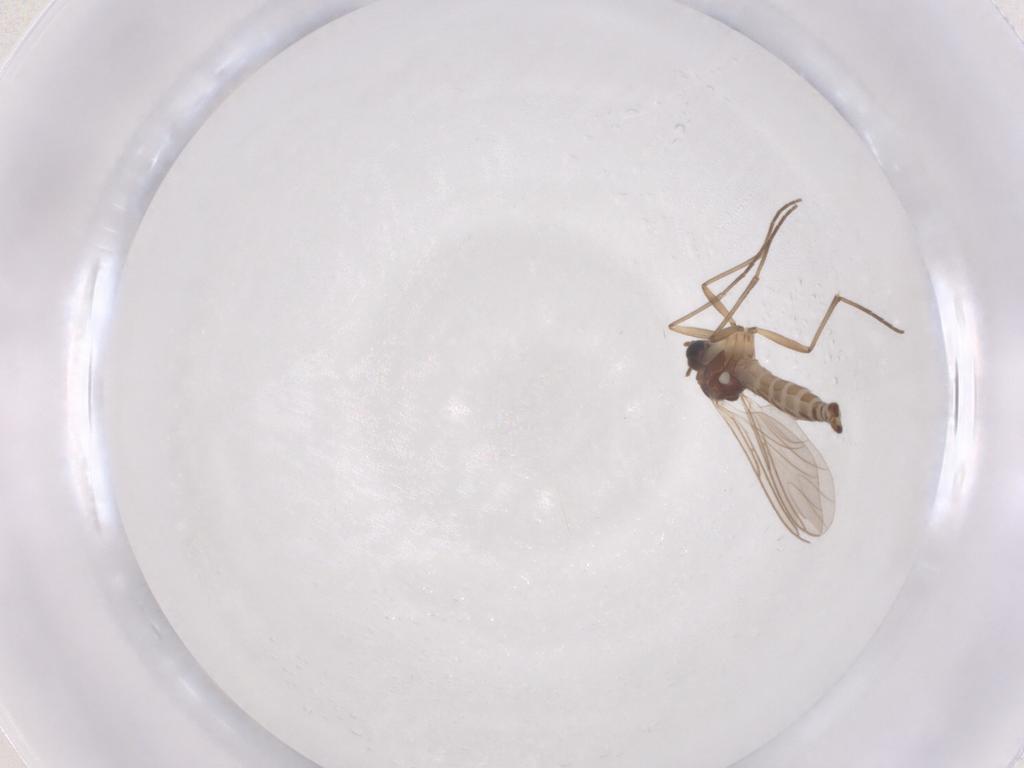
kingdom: Animalia
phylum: Arthropoda
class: Insecta
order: Diptera
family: Sciaridae
